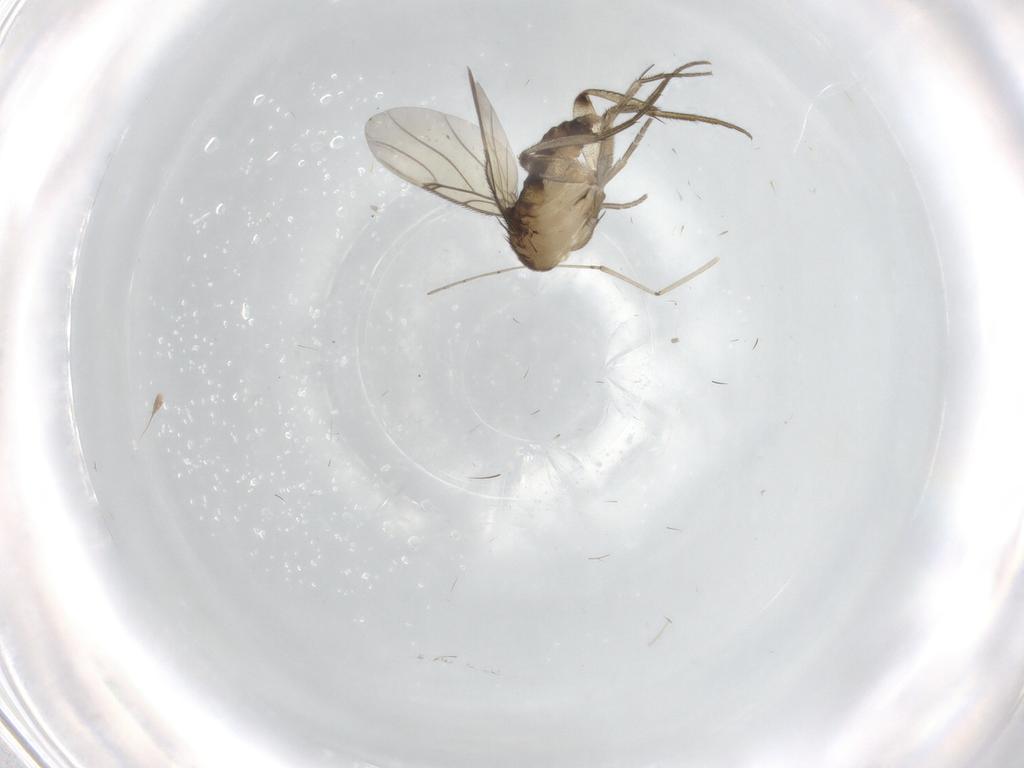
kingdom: Animalia
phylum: Arthropoda
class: Insecta
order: Diptera
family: Phoridae
